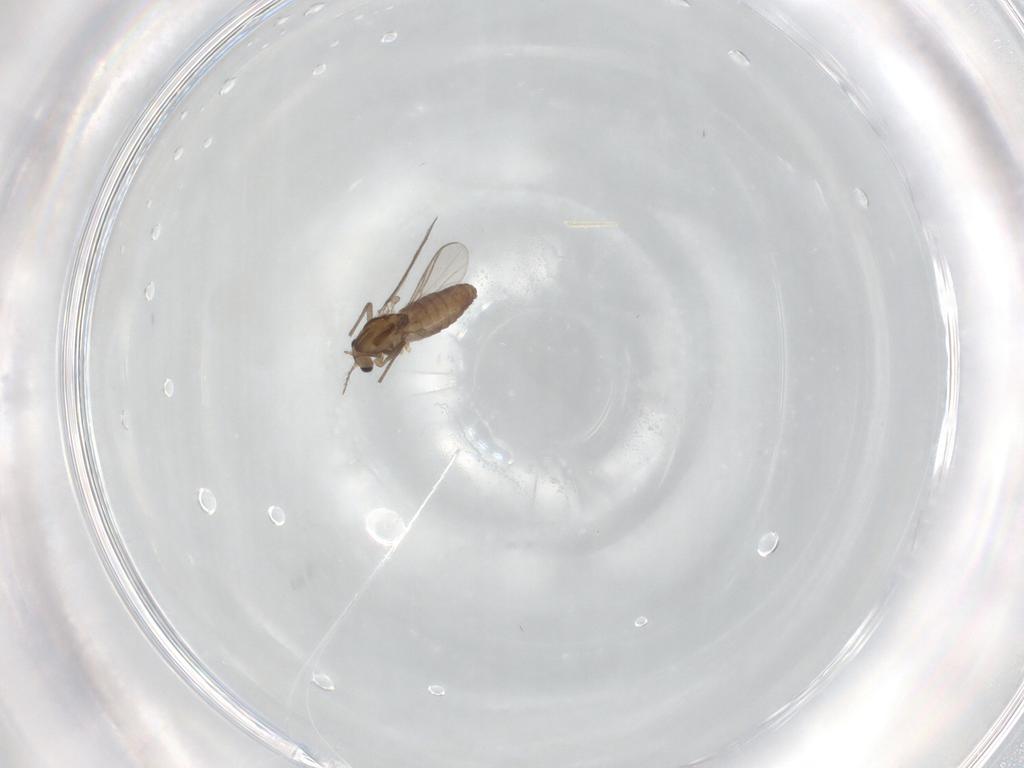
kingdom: Animalia
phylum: Arthropoda
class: Insecta
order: Diptera
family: Chironomidae
